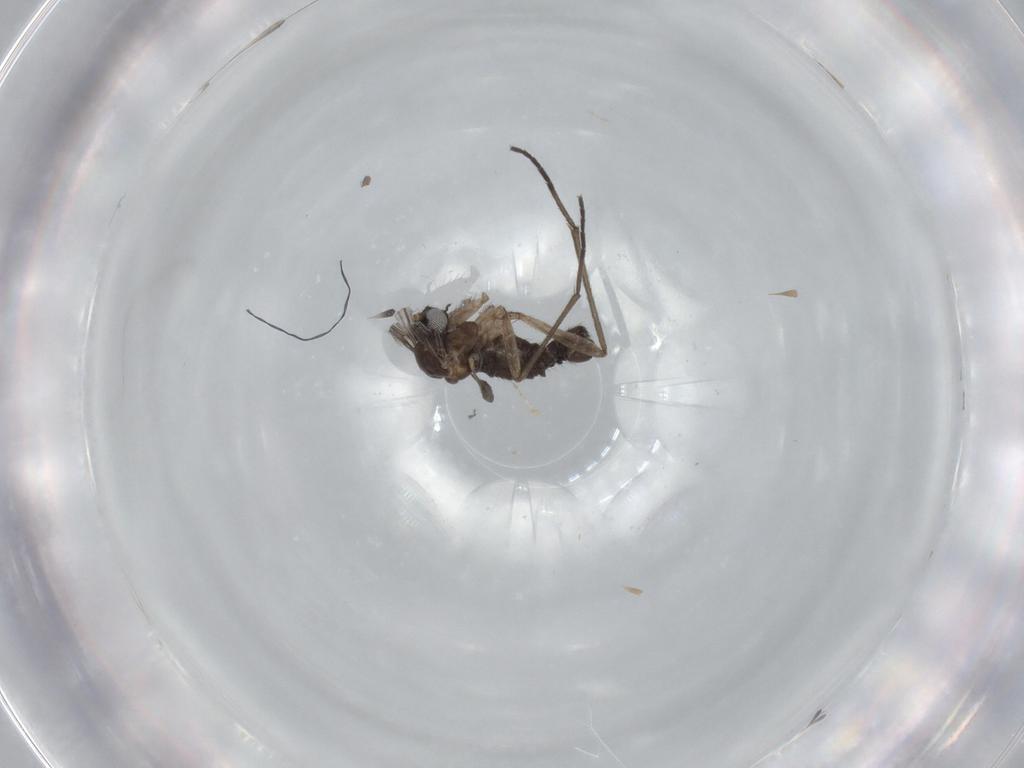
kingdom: Animalia
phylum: Arthropoda
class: Insecta
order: Diptera
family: Sciaridae
